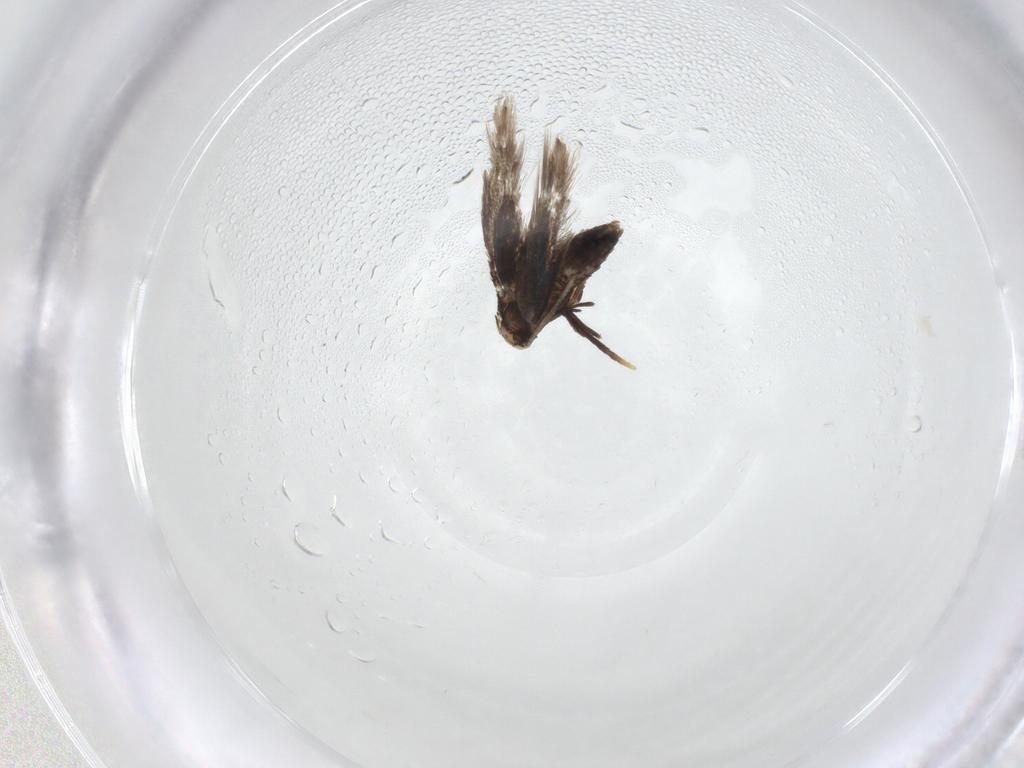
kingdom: Animalia
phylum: Arthropoda
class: Insecta
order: Lepidoptera
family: Nepticulidae
